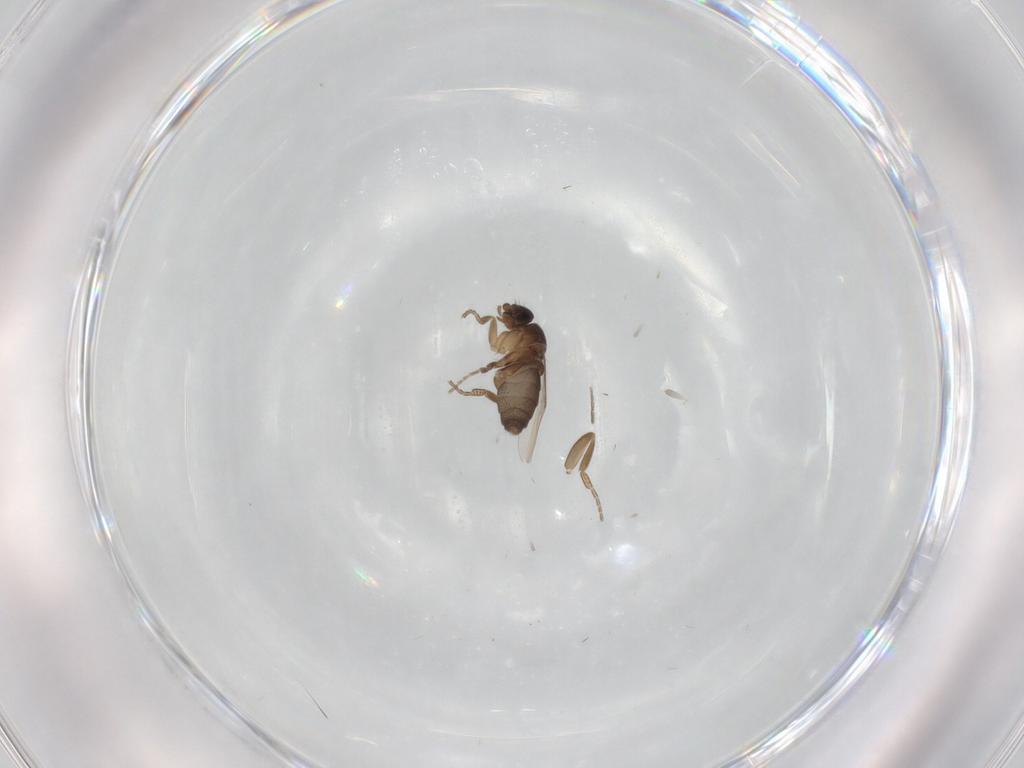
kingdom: Animalia
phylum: Arthropoda
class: Insecta
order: Diptera
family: Phoridae
